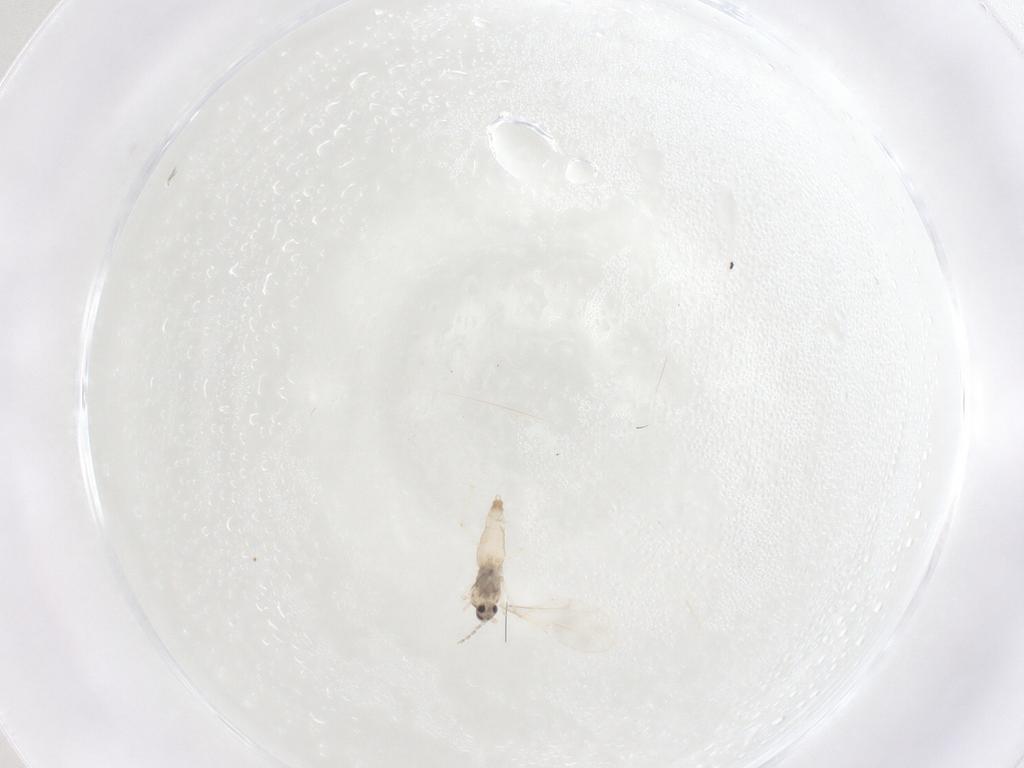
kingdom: Animalia
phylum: Arthropoda
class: Insecta
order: Diptera
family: Cecidomyiidae
